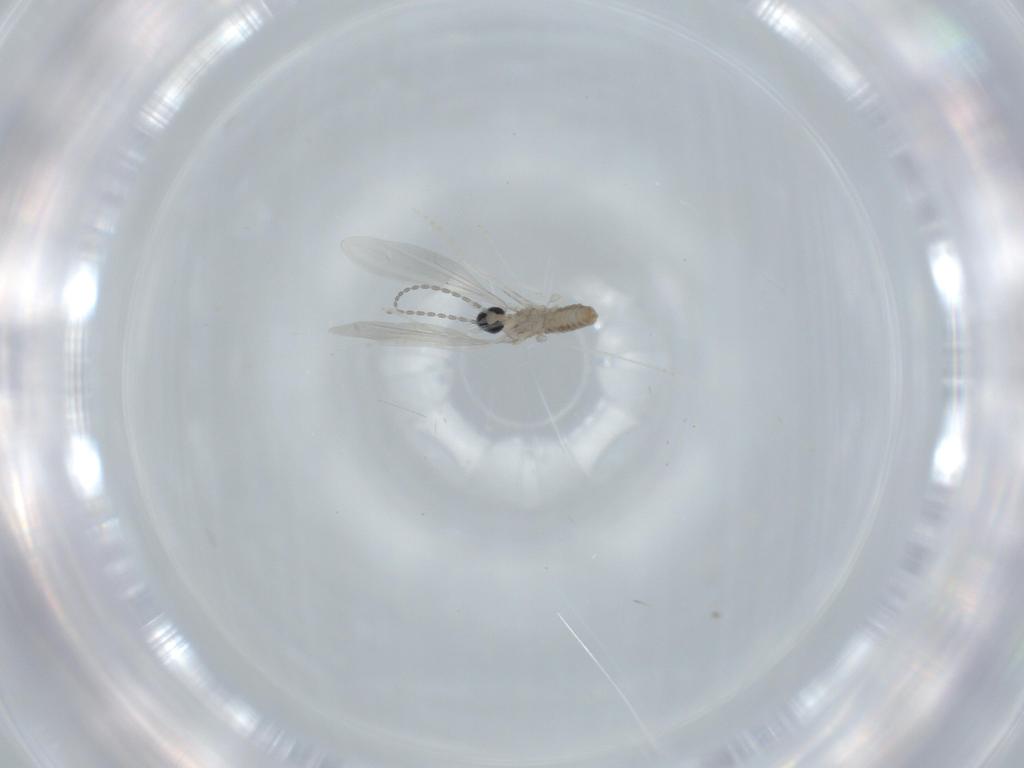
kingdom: Animalia
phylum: Arthropoda
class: Insecta
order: Diptera
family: Cecidomyiidae
